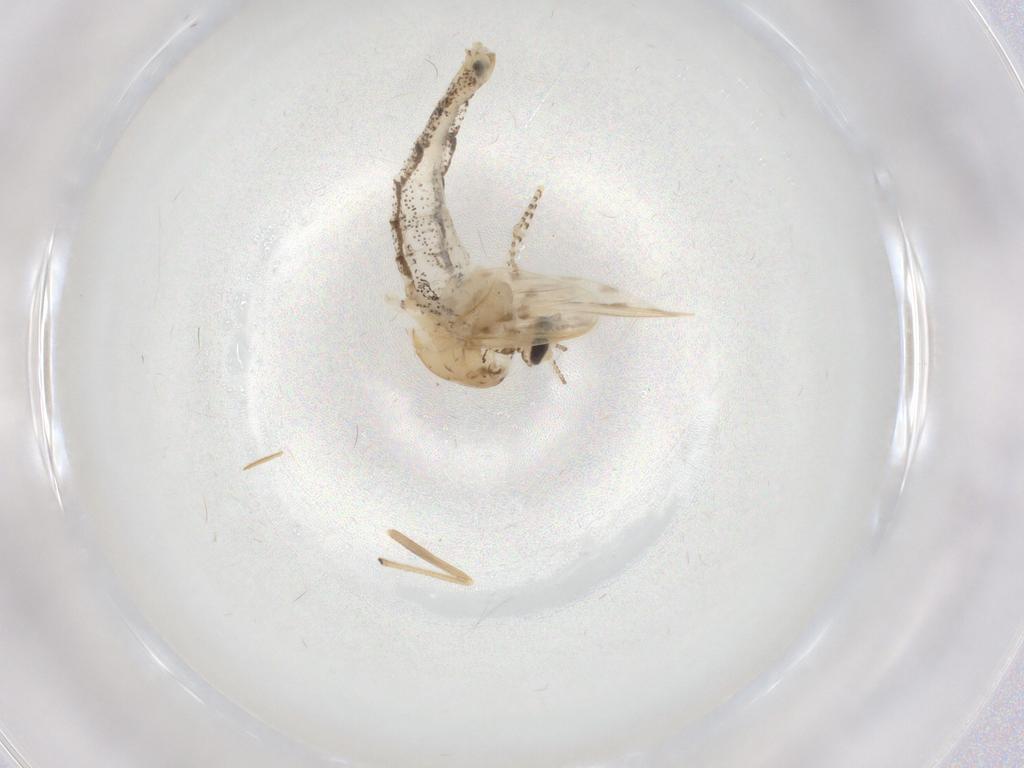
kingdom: Animalia
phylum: Arthropoda
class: Insecta
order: Diptera
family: Chaoboridae
